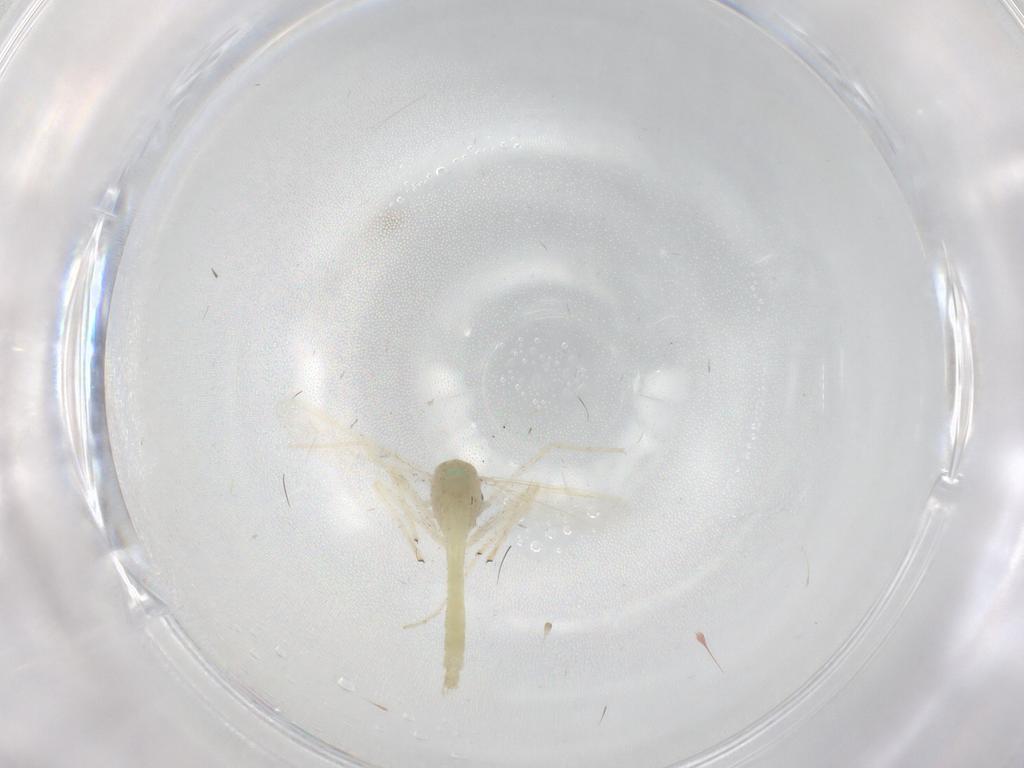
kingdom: Animalia
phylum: Arthropoda
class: Insecta
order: Diptera
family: Chironomidae
